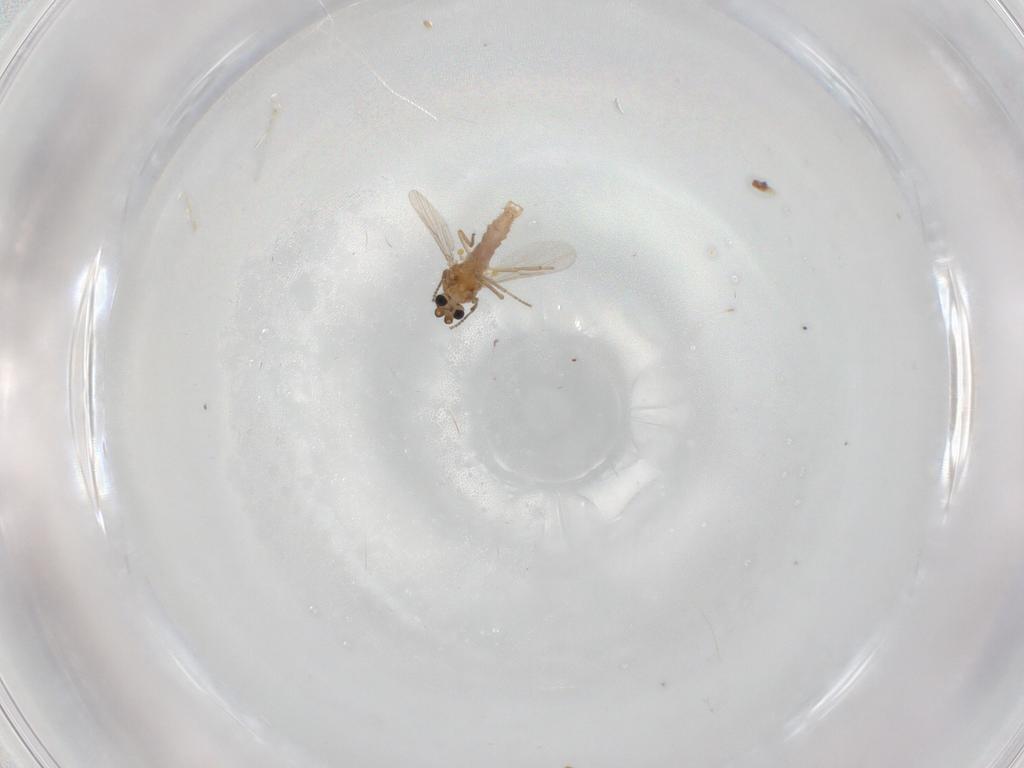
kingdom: Animalia
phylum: Arthropoda
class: Insecta
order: Diptera
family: Ceratopogonidae
